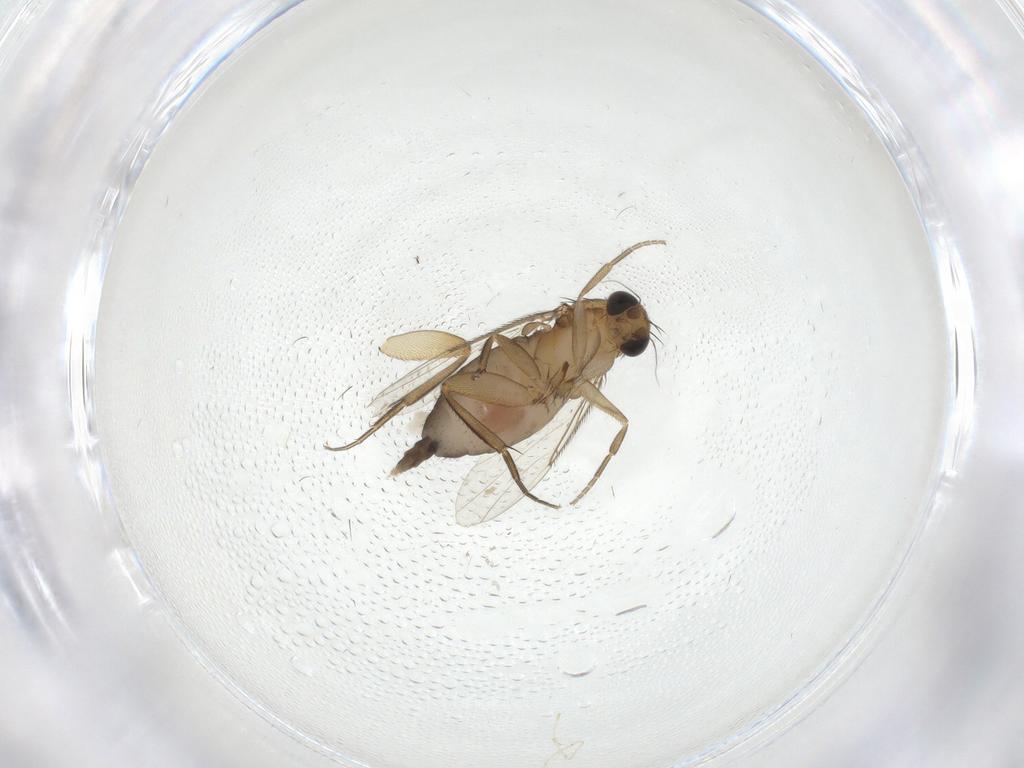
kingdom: Animalia
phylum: Arthropoda
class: Insecta
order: Diptera
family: Phoridae
